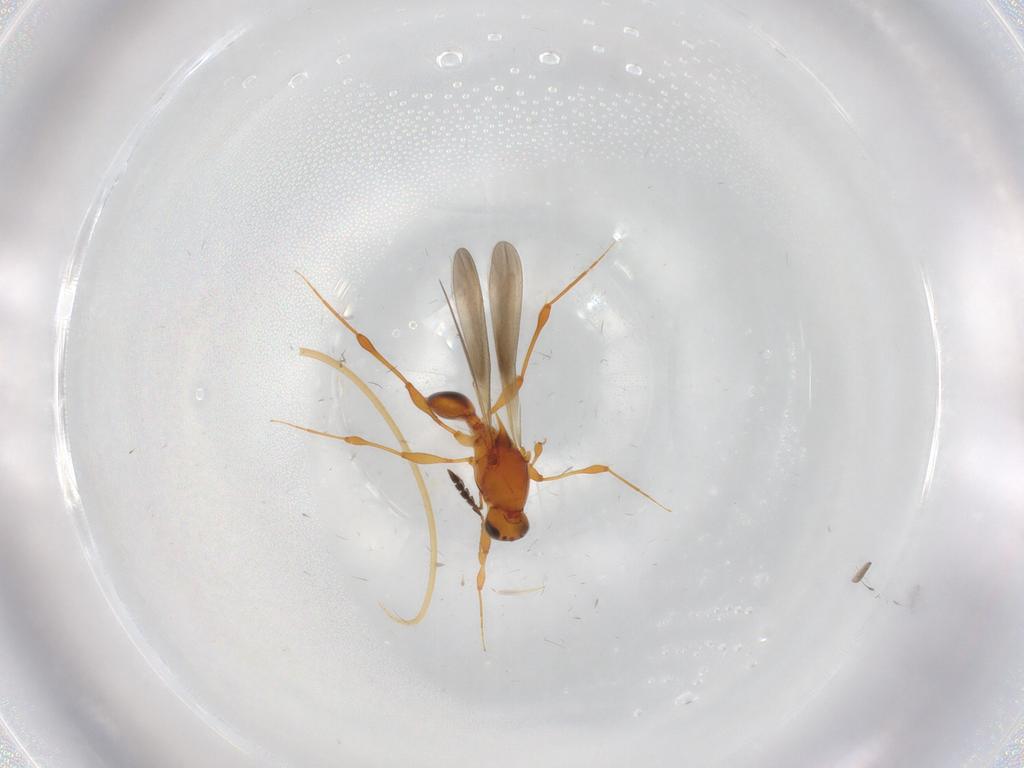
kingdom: Animalia
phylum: Arthropoda
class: Insecta
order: Hymenoptera
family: Platygastridae
